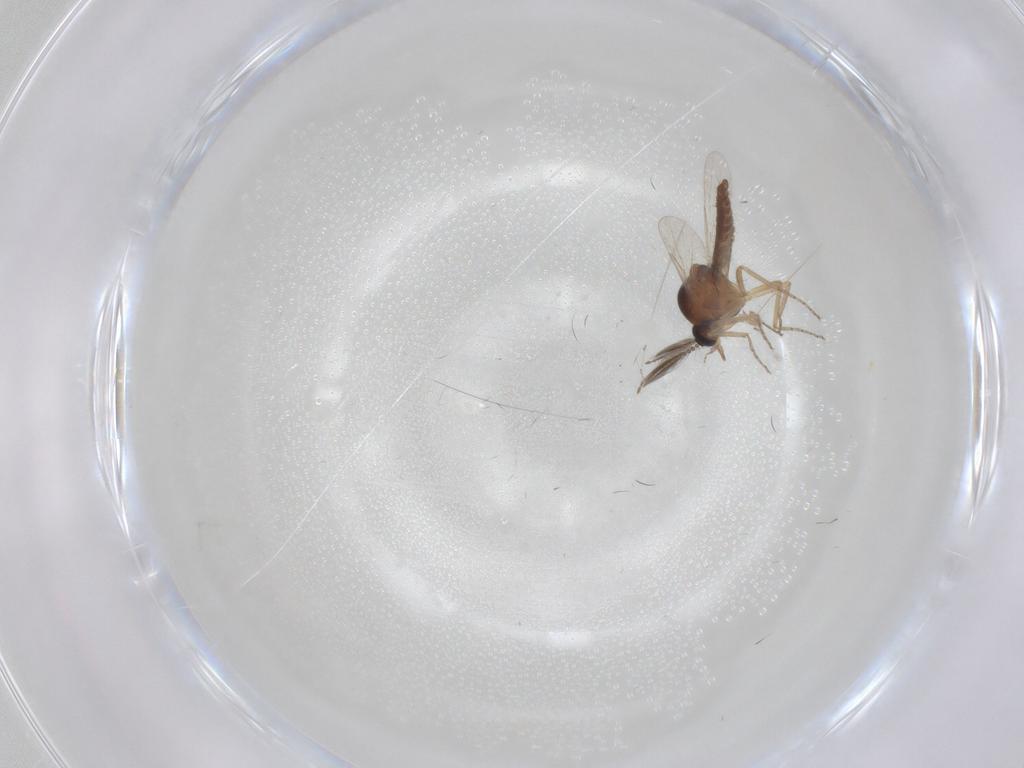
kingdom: Animalia
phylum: Arthropoda
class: Insecta
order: Diptera
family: Ceratopogonidae
